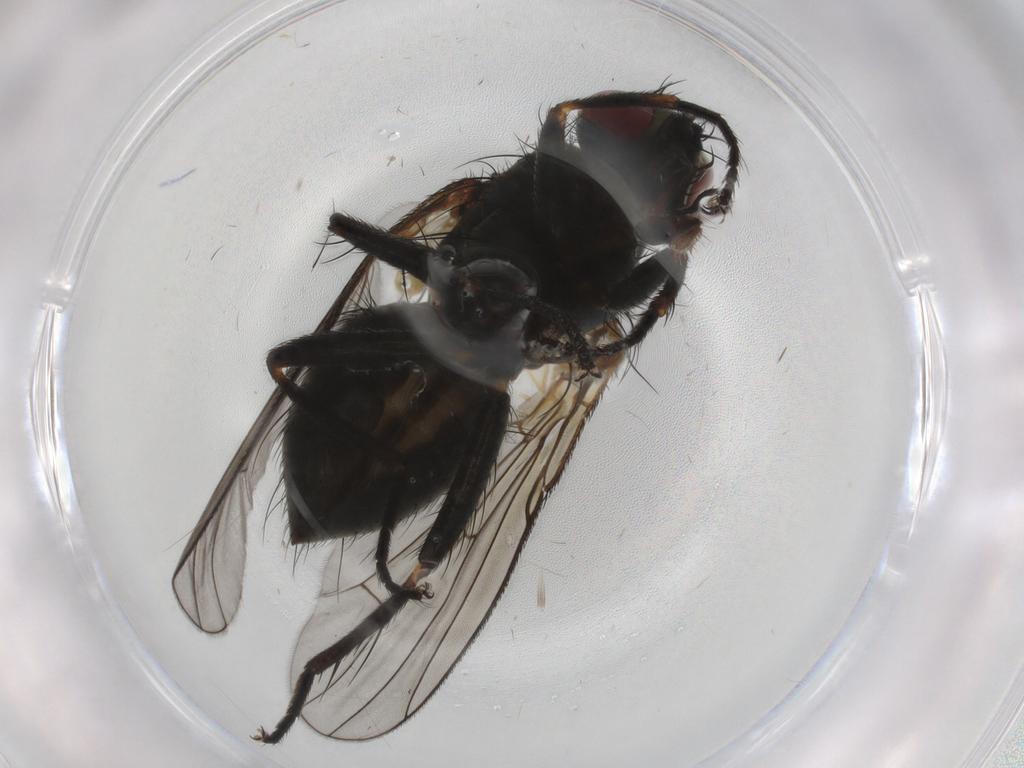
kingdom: Animalia
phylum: Arthropoda
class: Insecta
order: Diptera
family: Muscidae
